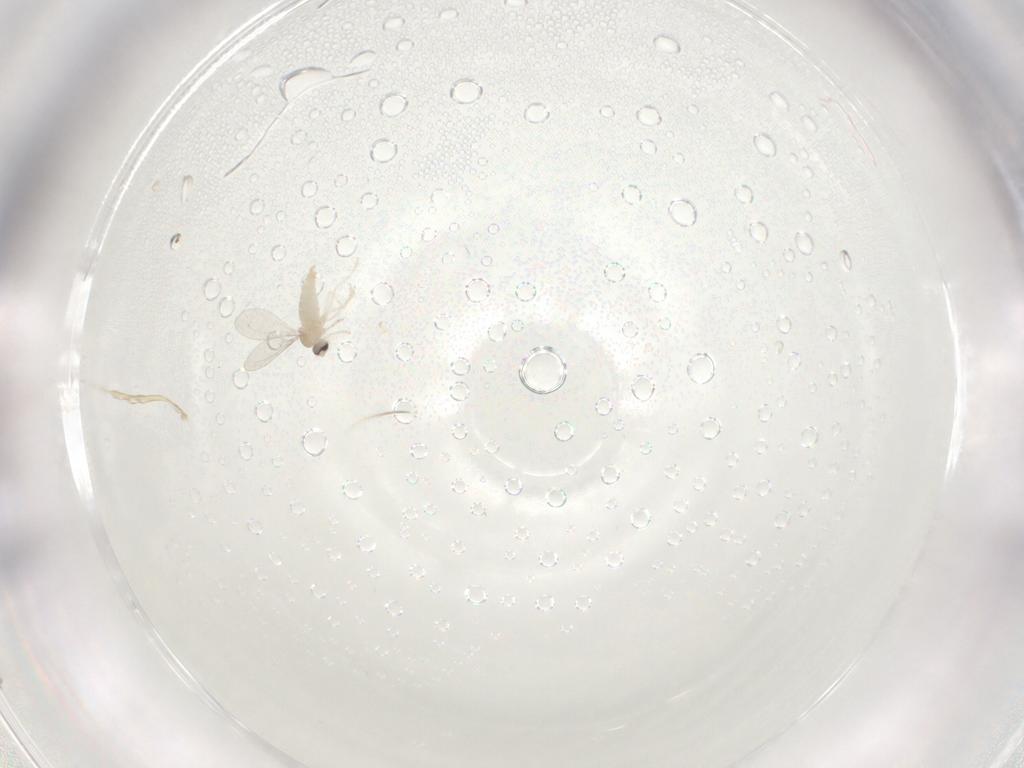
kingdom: Animalia
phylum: Arthropoda
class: Insecta
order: Diptera
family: Cecidomyiidae
